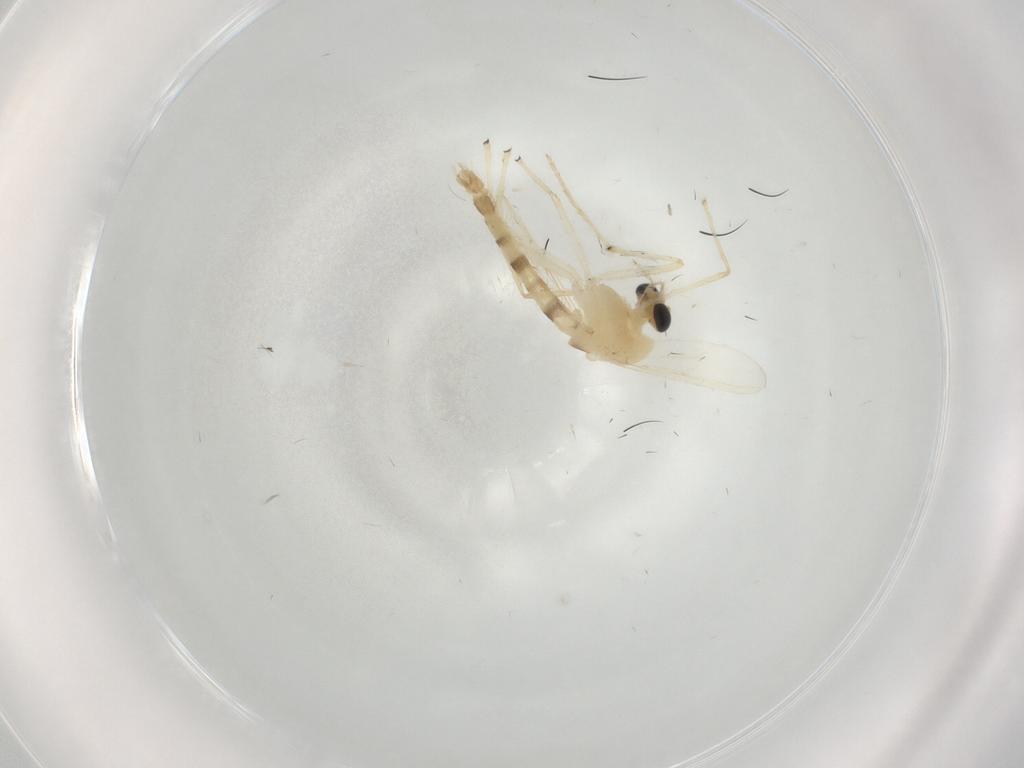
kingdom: Animalia
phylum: Arthropoda
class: Insecta
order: Diptera
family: Chironomidae
